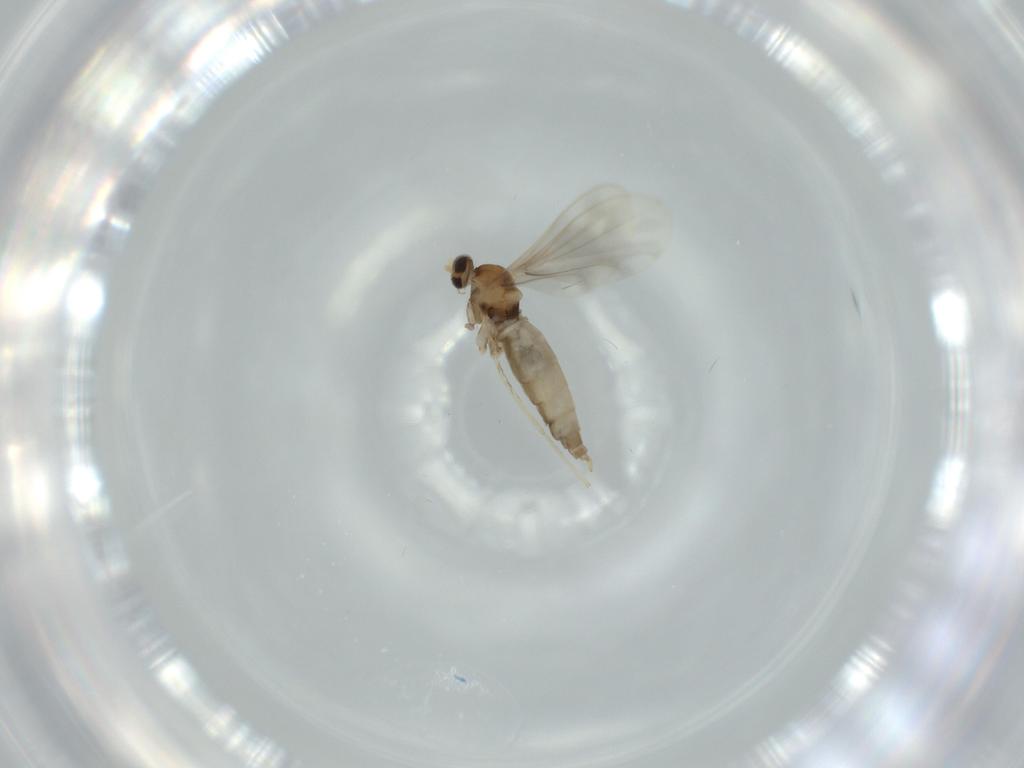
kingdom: Animalia
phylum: Arthropoda
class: Insecta
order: Diptera
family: Cecidomyiidae
